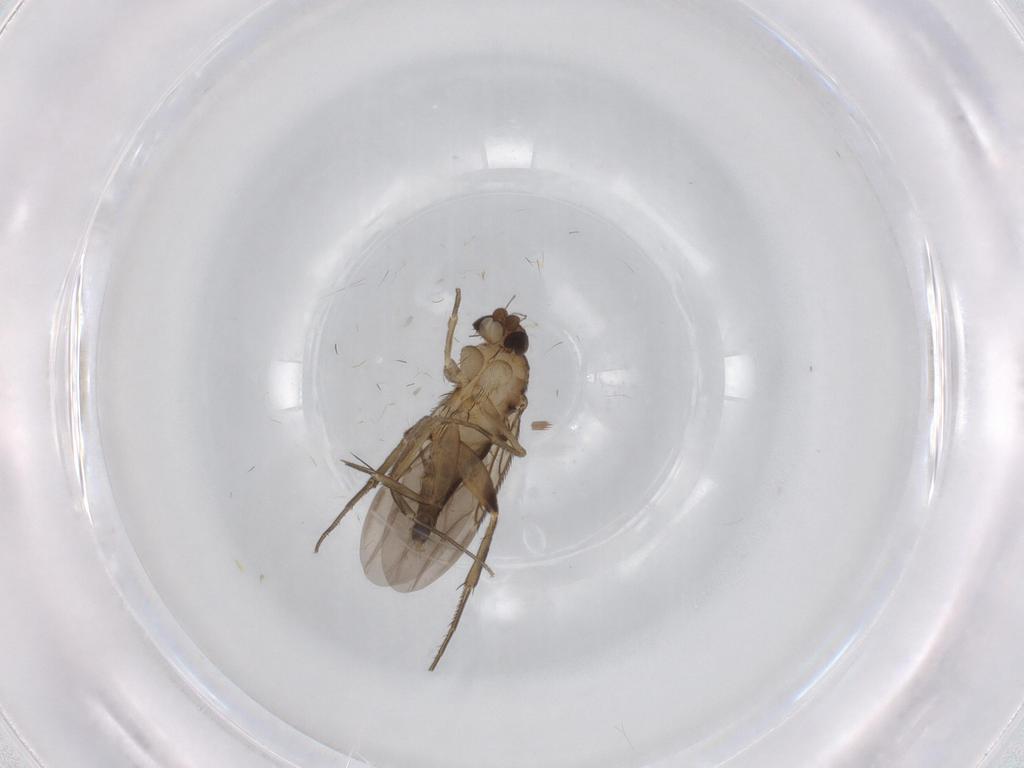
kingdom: Animalia
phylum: Arthropoda
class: Insecta
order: Diptera
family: Phoridae
